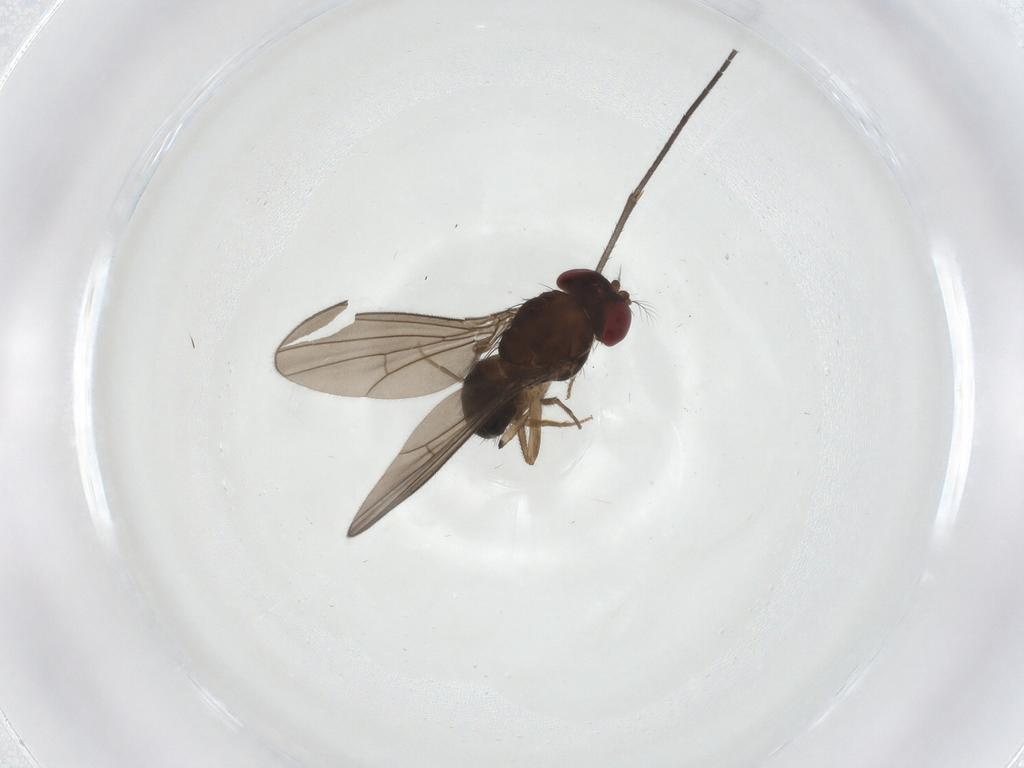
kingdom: Animalia
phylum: Arthropoda
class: Insecta
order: Diptera
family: Drosophilidae
